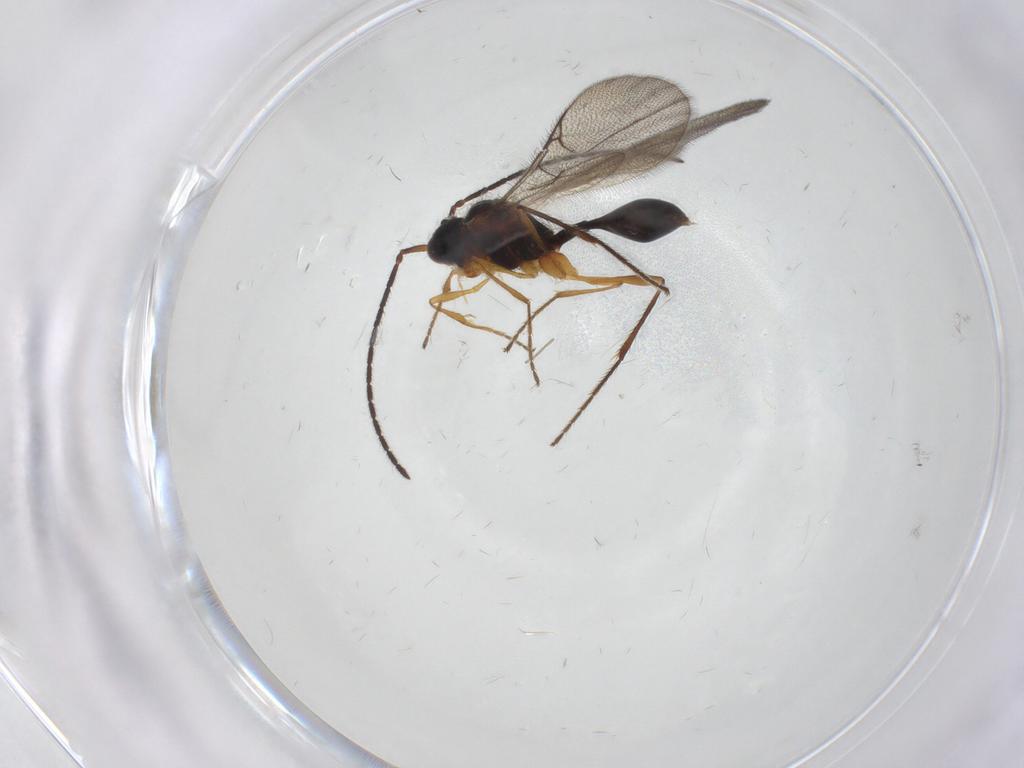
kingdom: Animalia
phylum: Arthropoda
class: Insecta
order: Hymenoptera
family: Diapriidae
